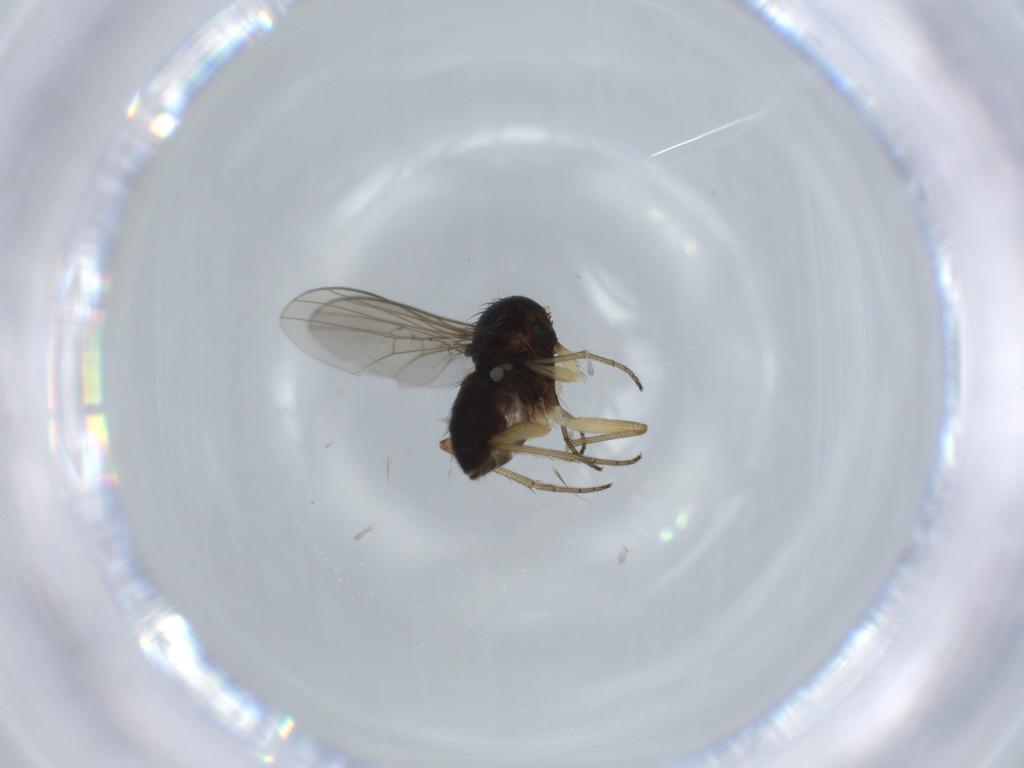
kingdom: Animalia
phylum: Arthropoda
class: Insecta
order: Diptera
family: Dolichopodidae
